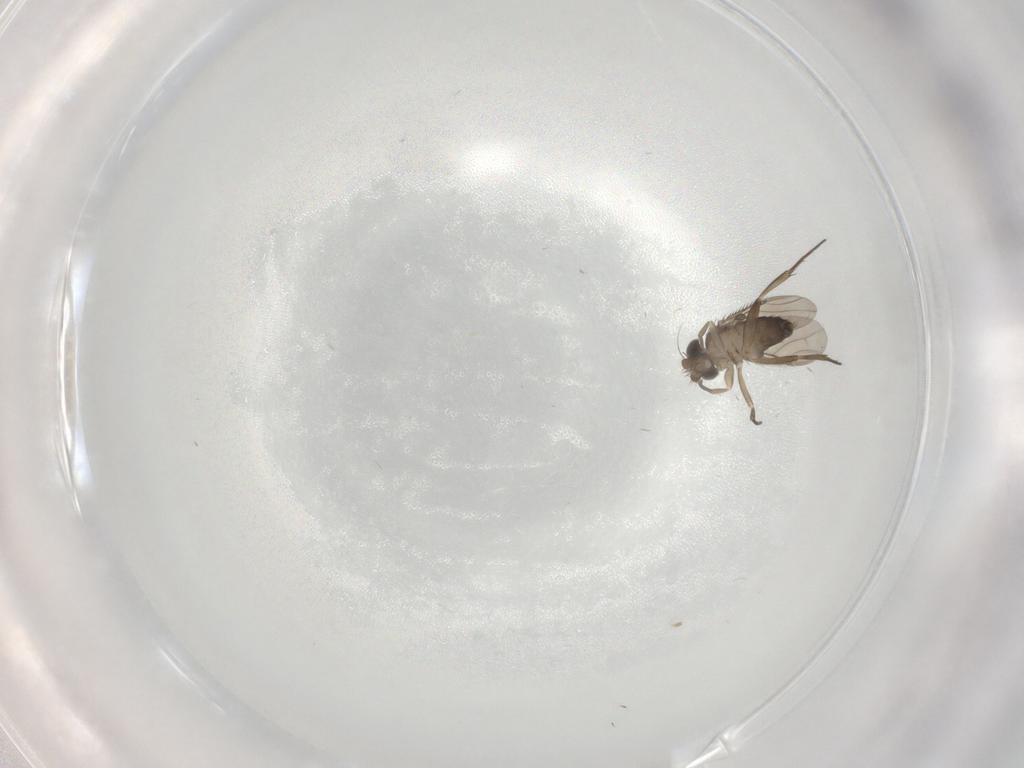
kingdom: Animalia
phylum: Arthropoda
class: Insecta
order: Diptera
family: Phoridae
